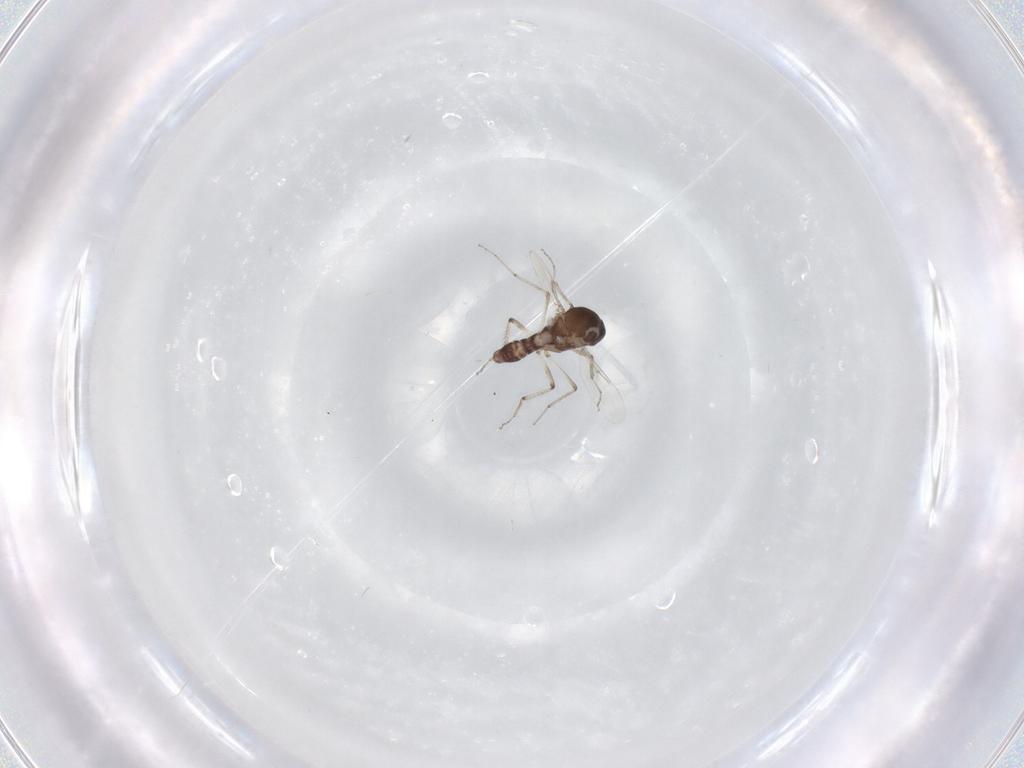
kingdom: Animalia
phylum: Arthropoda
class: Insecta
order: Diptera
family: Ceratopogonidae
